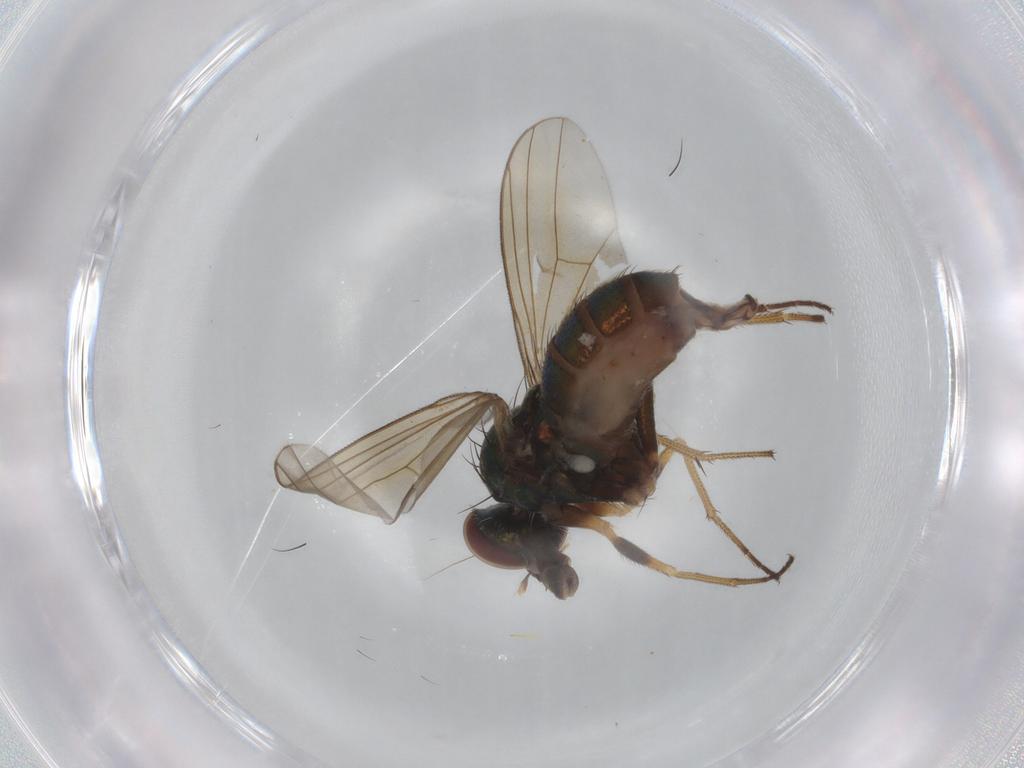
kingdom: Animalia
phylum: Arthropoda
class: Insecta
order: Diptera
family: Dolichopodidae
